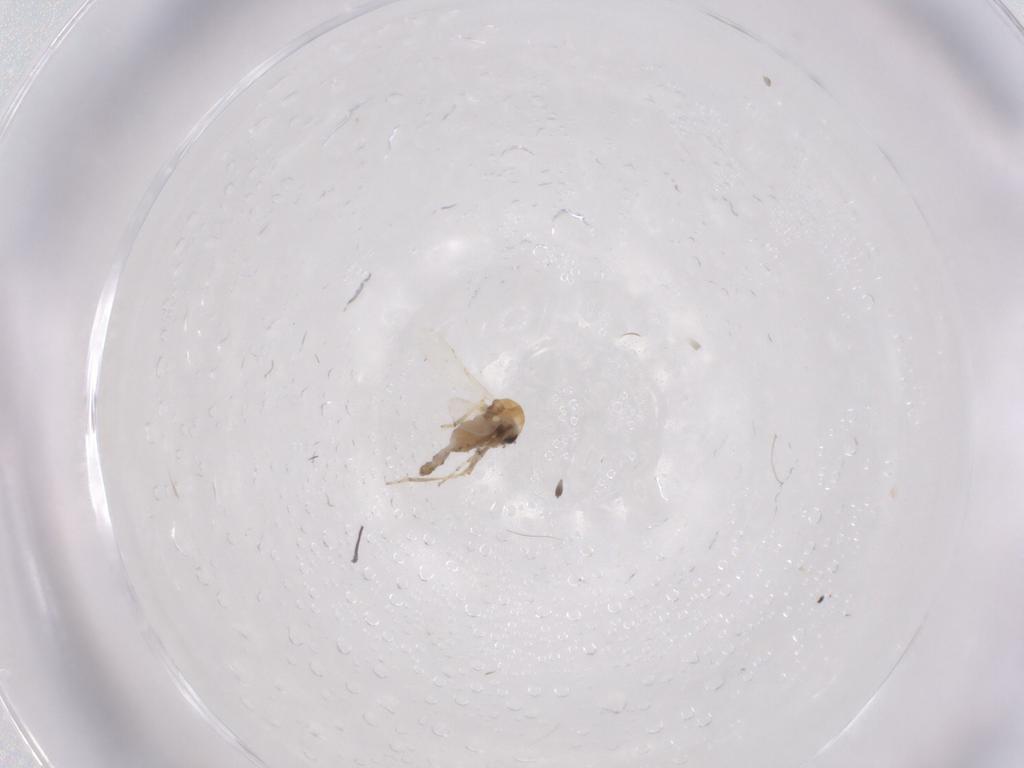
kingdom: Animalia
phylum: Arthropoda
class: Insecta
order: Diptera
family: Ceratopogonidae
